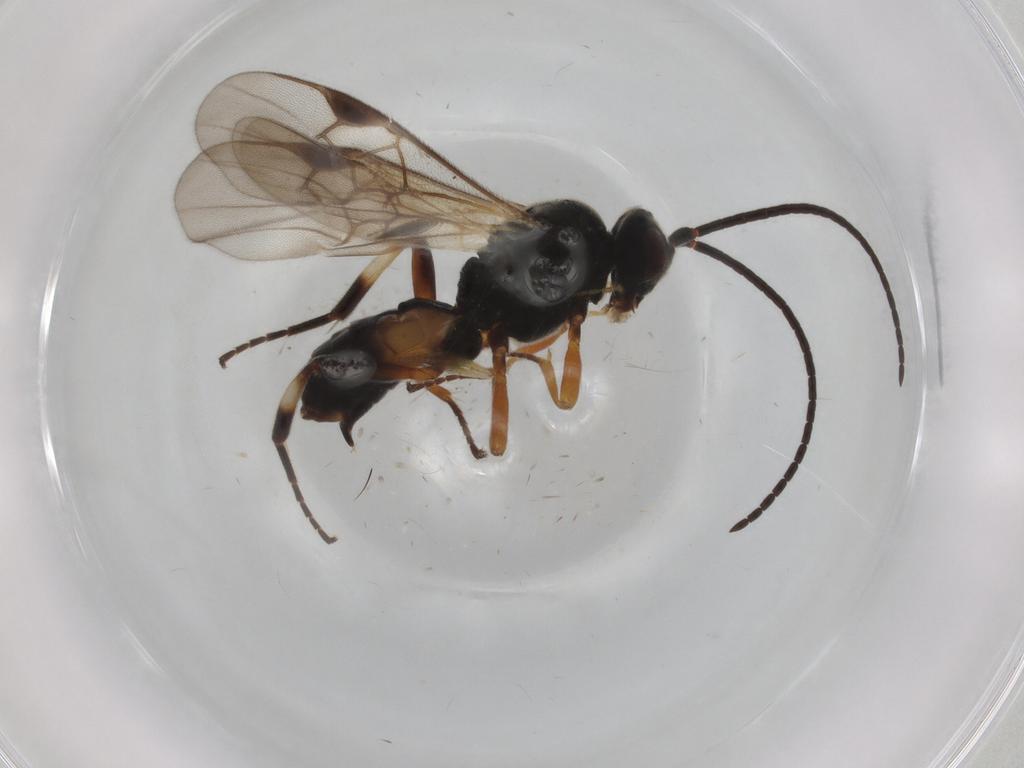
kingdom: Animalia
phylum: Arthropoda
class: Insecta
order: Hymenoptera
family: Braconidae
